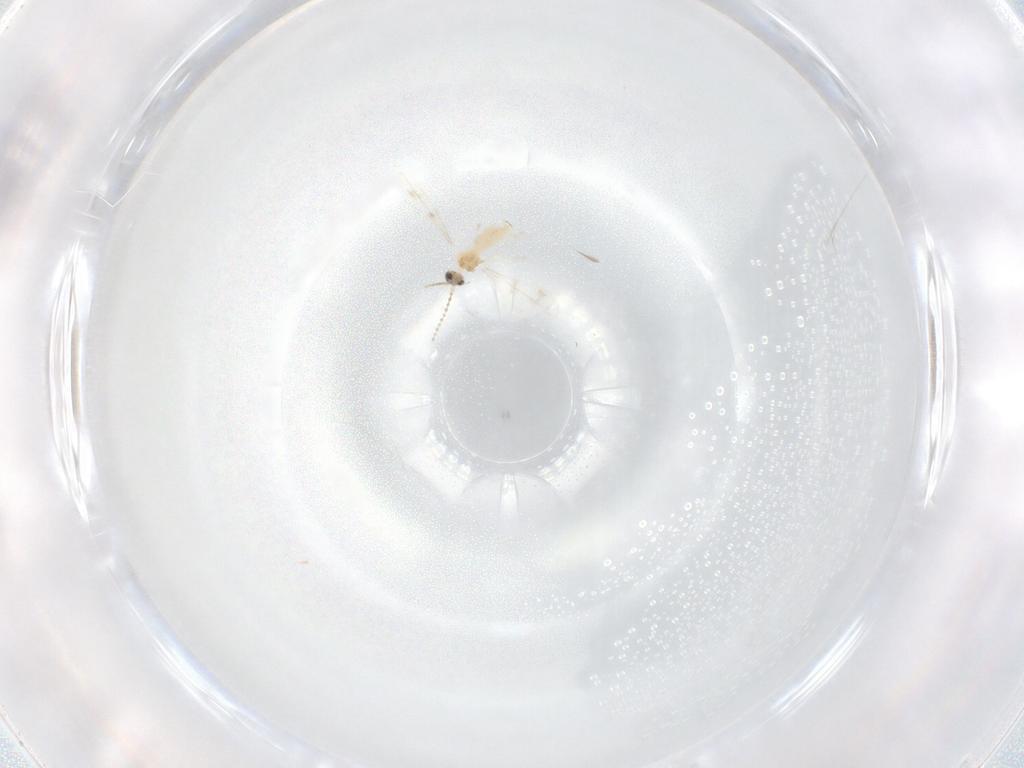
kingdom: Animalia
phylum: Arthropoda
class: Insecta
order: Diptera
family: Cecidomyiidae
